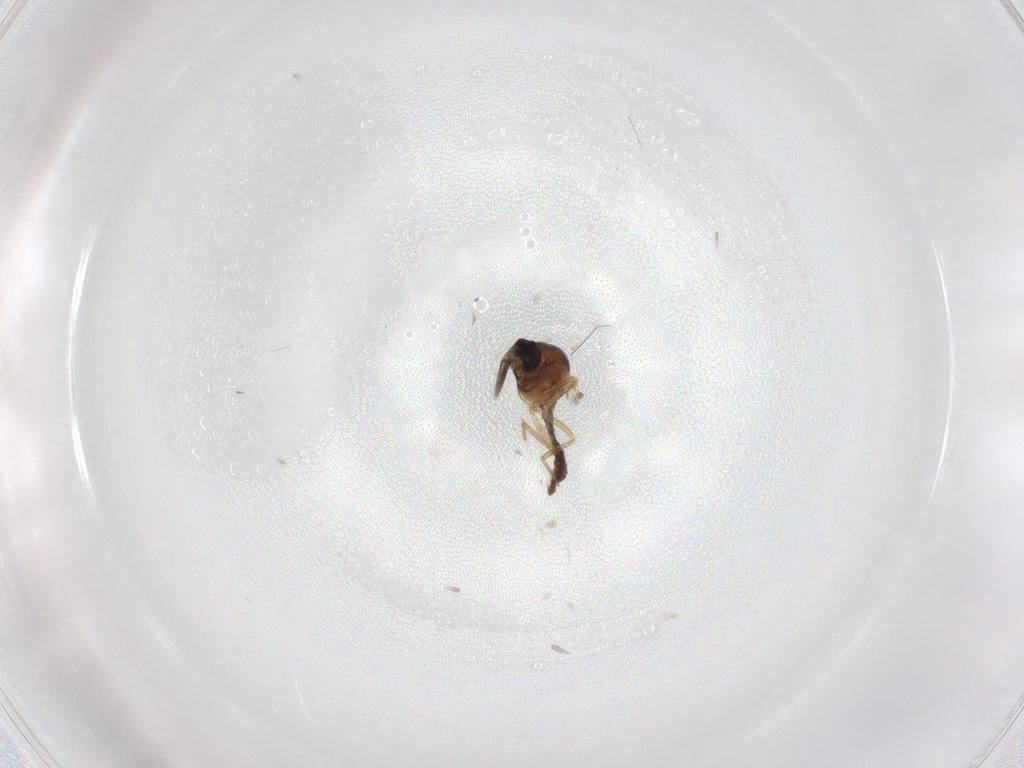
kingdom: Animalia
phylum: Arthropoda
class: Insecta
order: Diptera
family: Ceratopogonidae
